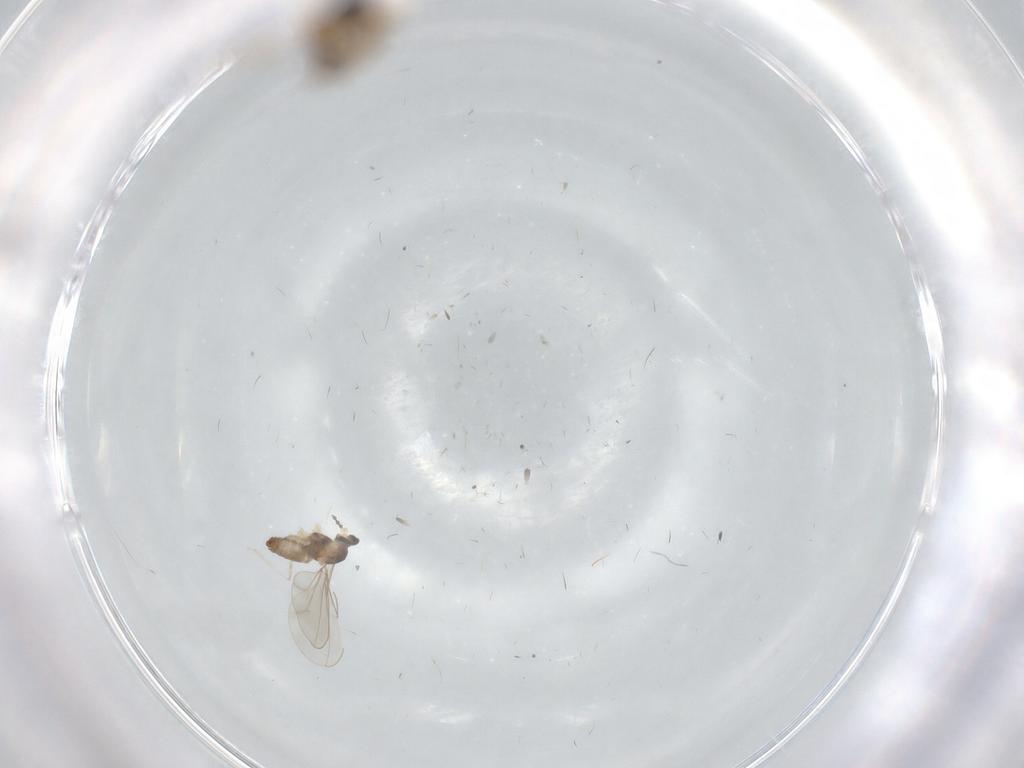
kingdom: Animalia
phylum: Arthropoda
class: Insecta
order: Diptera
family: Cecidomyiidae
